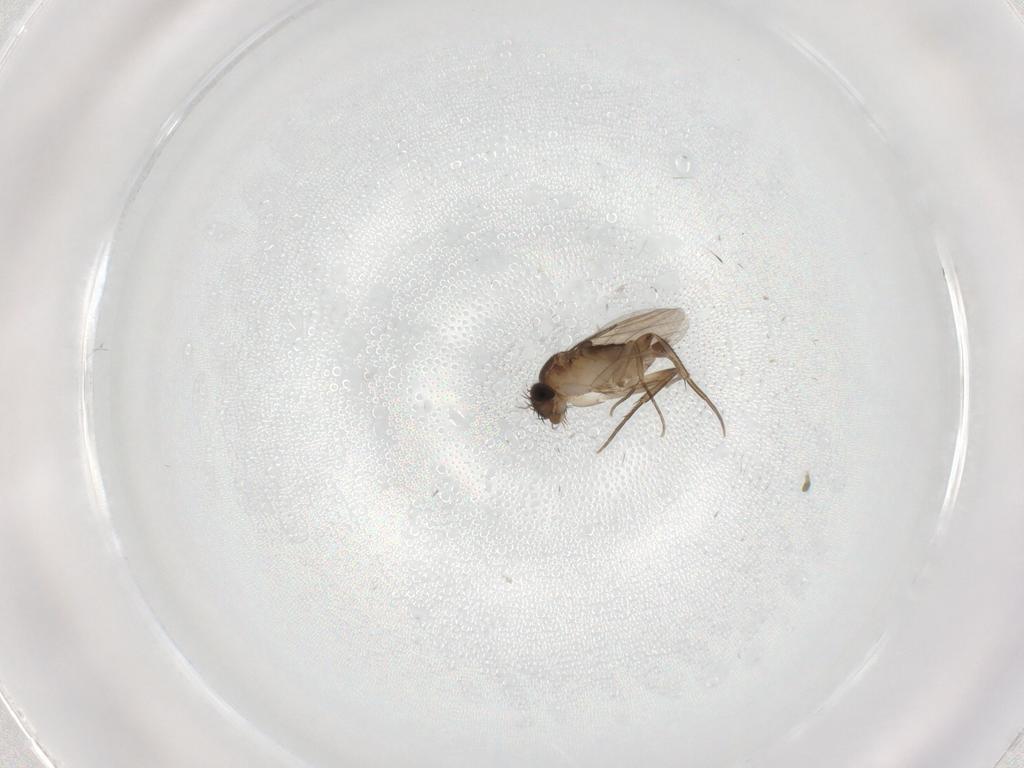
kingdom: Animalia
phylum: Arthropoda
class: Insecta
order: Diptera
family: Phoridae
